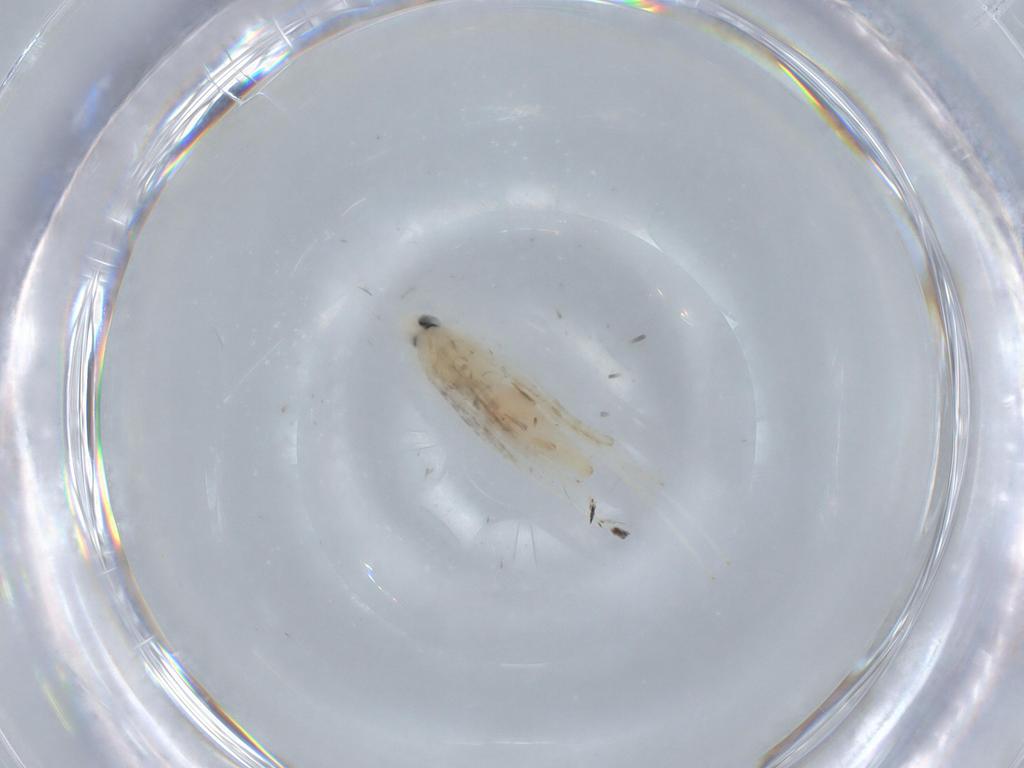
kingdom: Animalia
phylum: Arthropoda
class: Insecta
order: Lepidoptera
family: Gracillariidae
